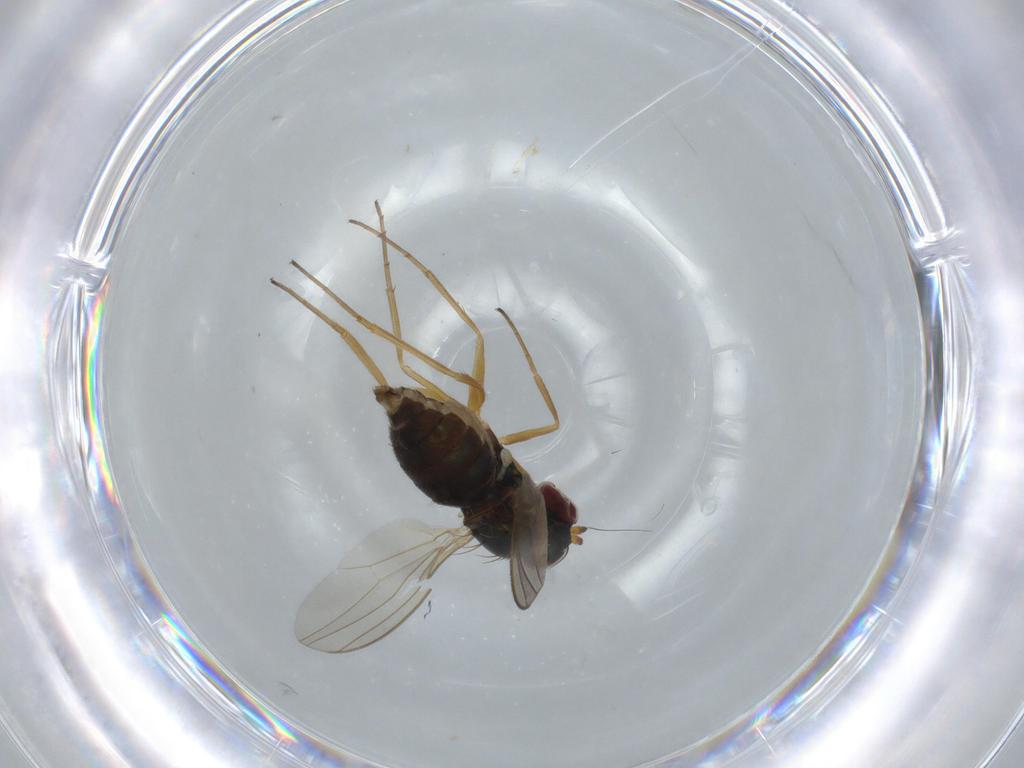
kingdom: Animalia
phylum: Arthropoda
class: Insecta
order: Diptera
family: Dolichopodidae
